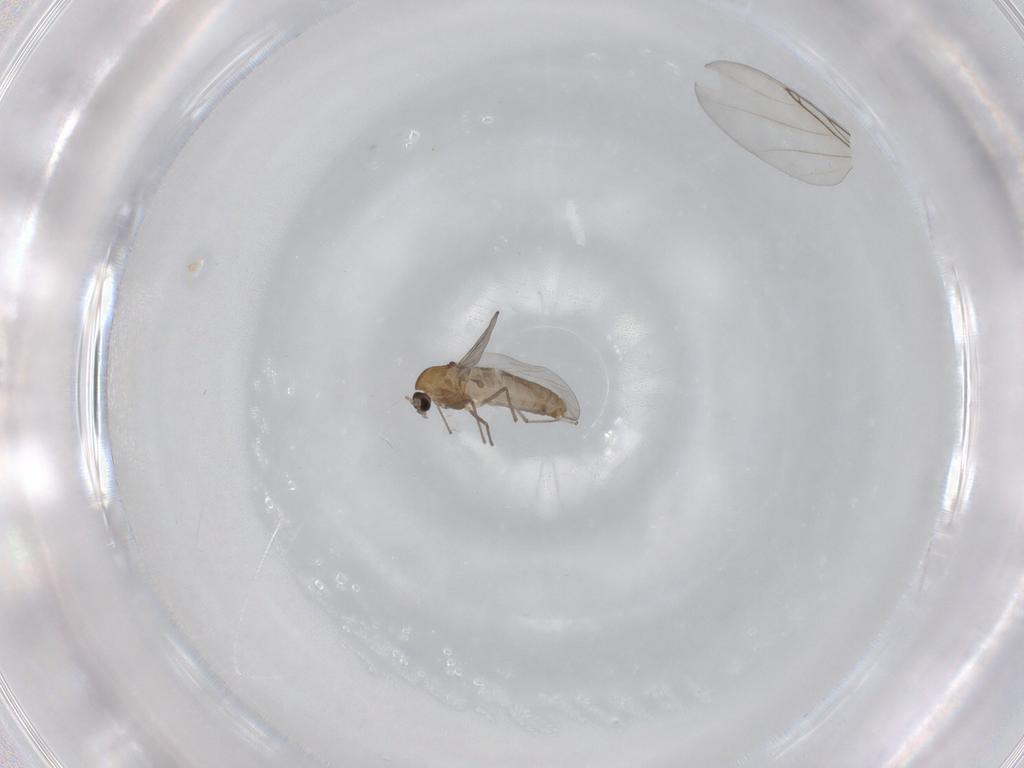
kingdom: Animalia
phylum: Arthropoda
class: Insecta
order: Diptera
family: Chironomidae
